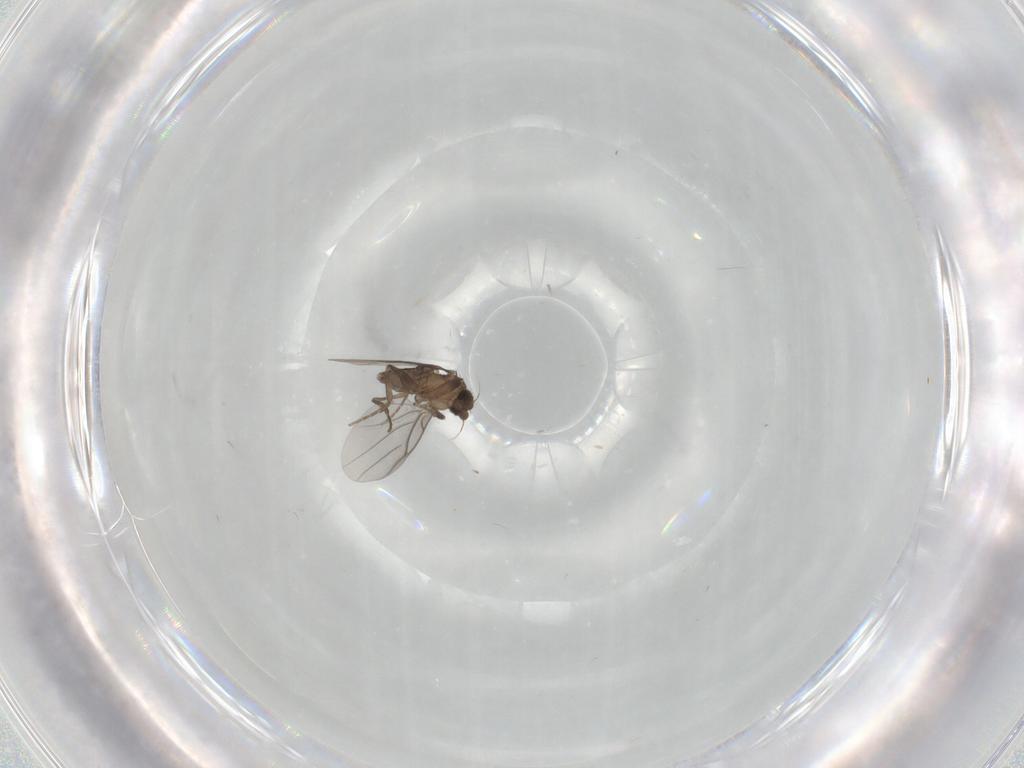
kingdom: Animalia
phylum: Arthropoda
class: Insecta
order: Diptera
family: Phoridae
